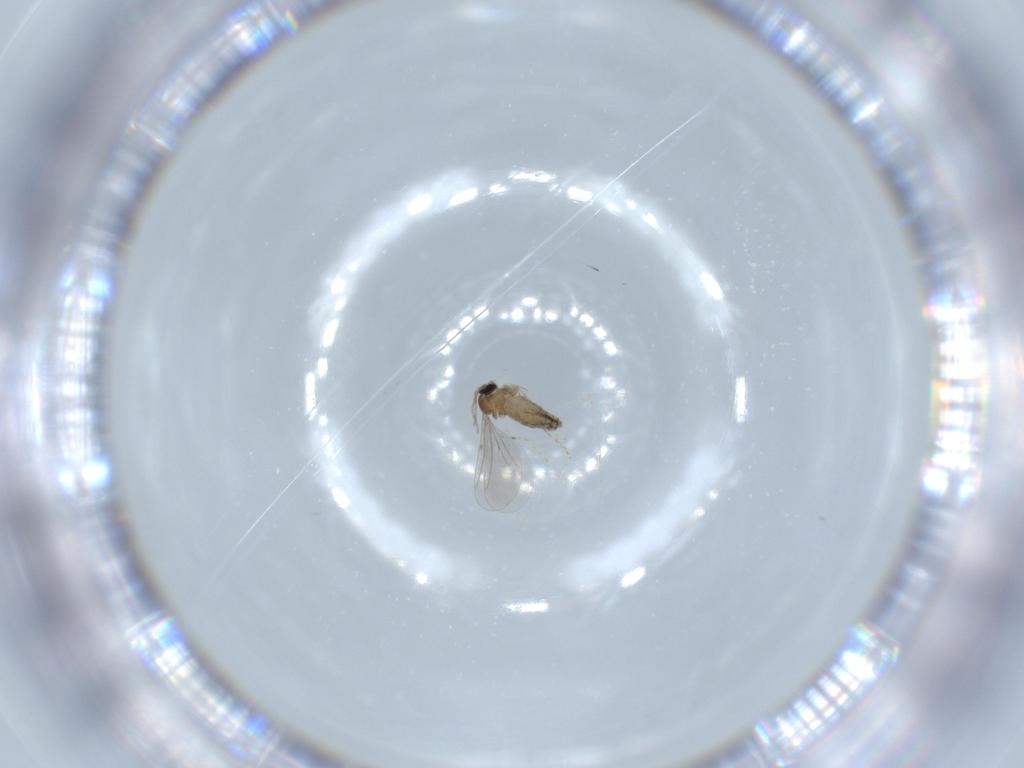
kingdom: Animalia
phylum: Arthropoda
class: Insecta
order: Diptera
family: Cecidomyiidae
